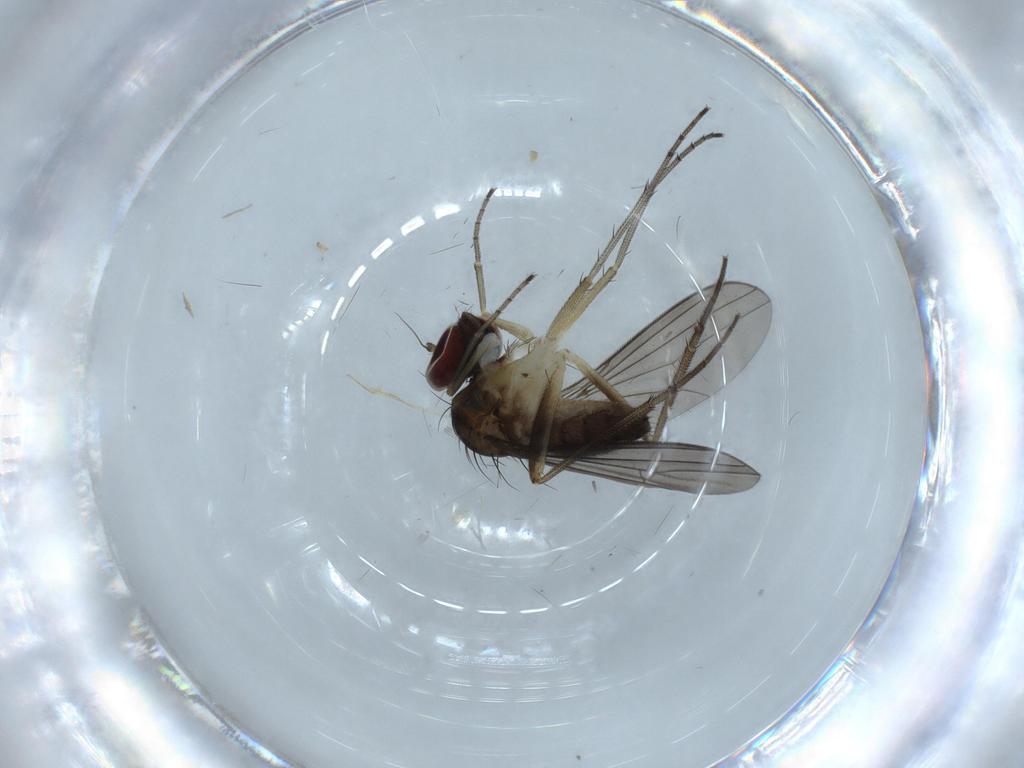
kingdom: Animalia
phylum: Arthropoda
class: Insecta
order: Diptera
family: Dolichopodidae
